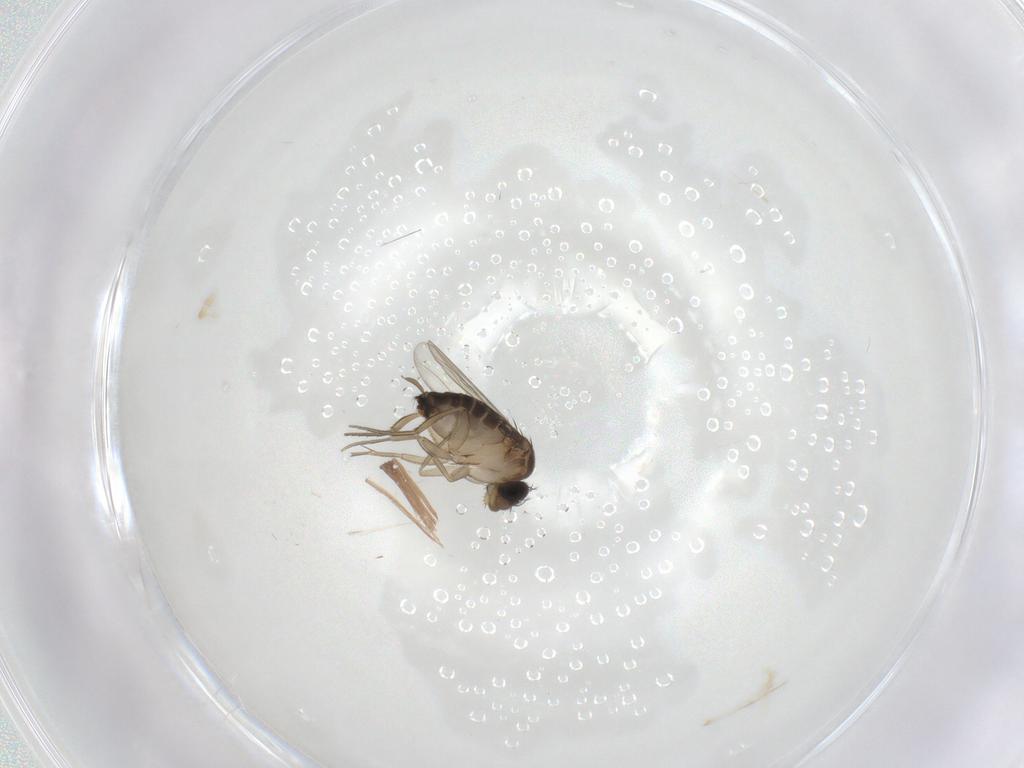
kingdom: Animalia
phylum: Arthropoda
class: Insecta
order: Diptera
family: Cecidomyiidae
